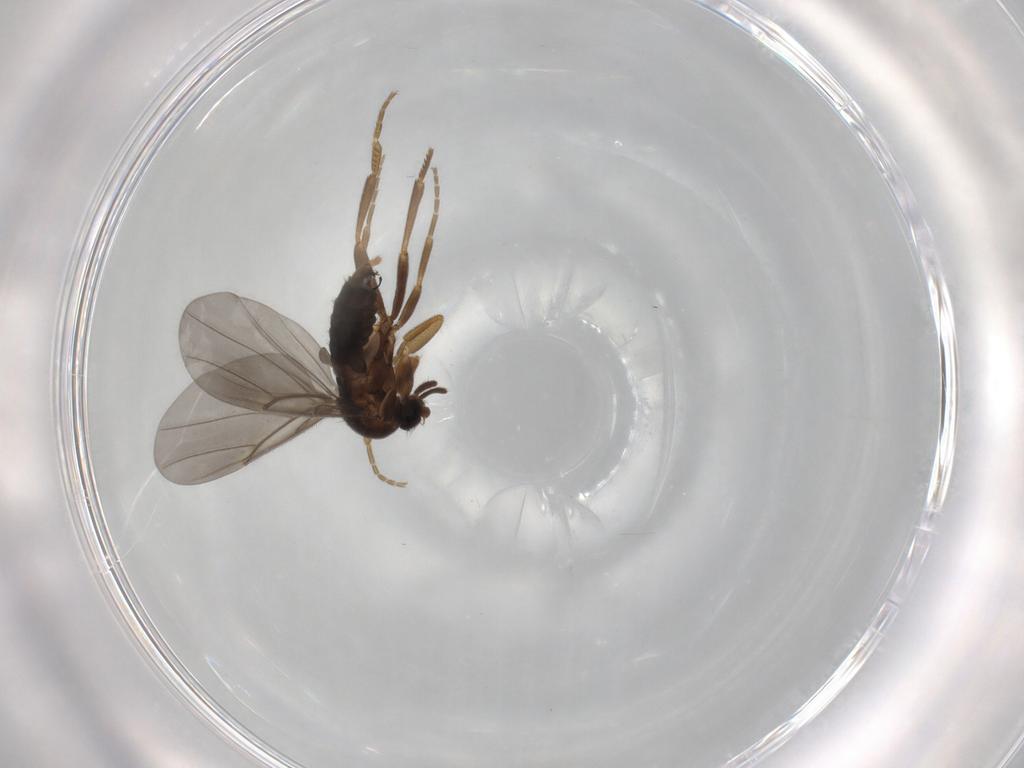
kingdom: Animalia
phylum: Arthropoda
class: Insecta
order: Diptera
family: Phoridae
